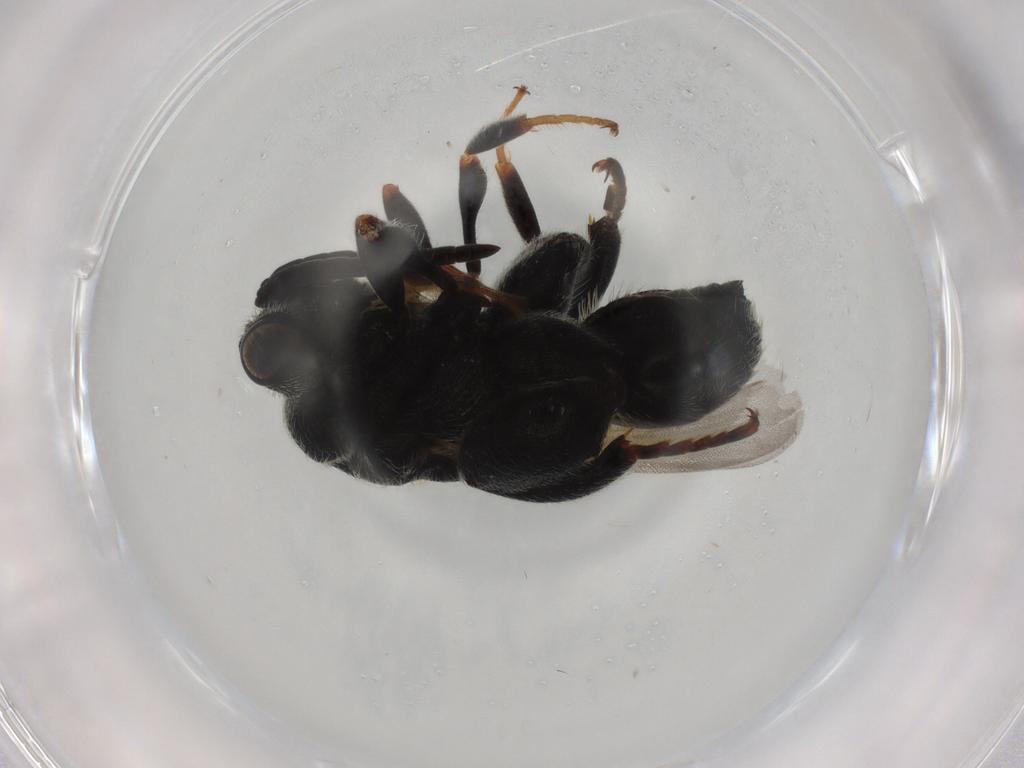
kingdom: Animalia
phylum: Arthropoda
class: Insecta
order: Hymenoptera
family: Chalcididae
